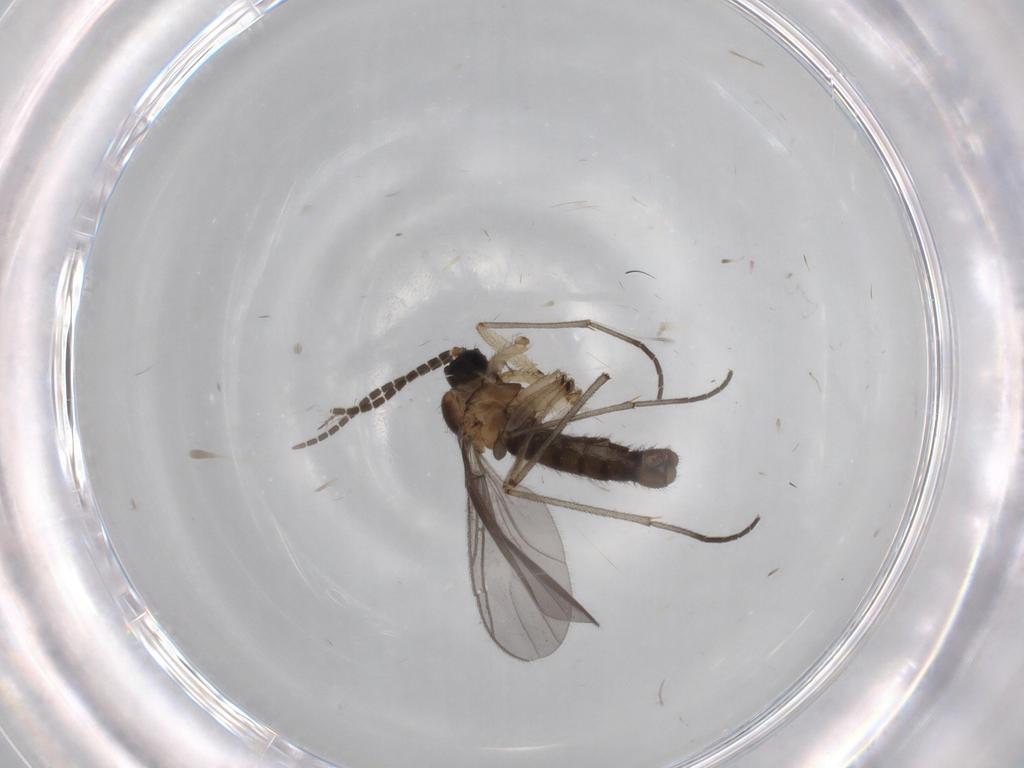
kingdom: Animalia
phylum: Arthropoda
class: Insecta
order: Diptera
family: Sciaridae
